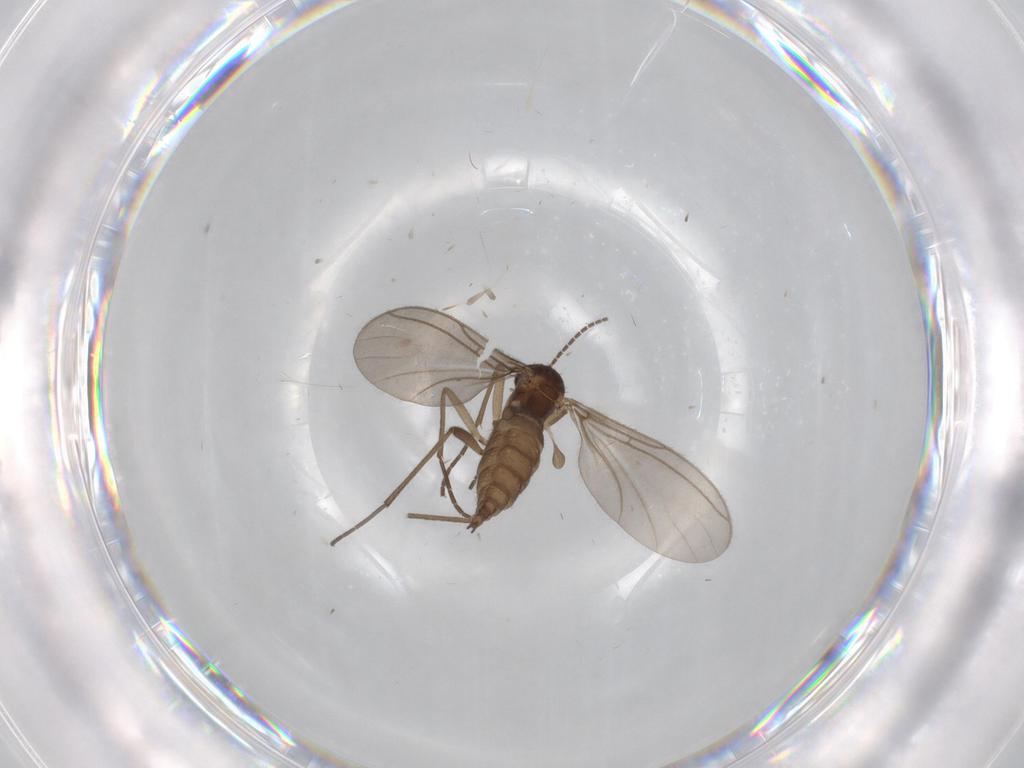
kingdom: Animalia
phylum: Arthropoda
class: Insecta
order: Diptera
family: Sciaridae
